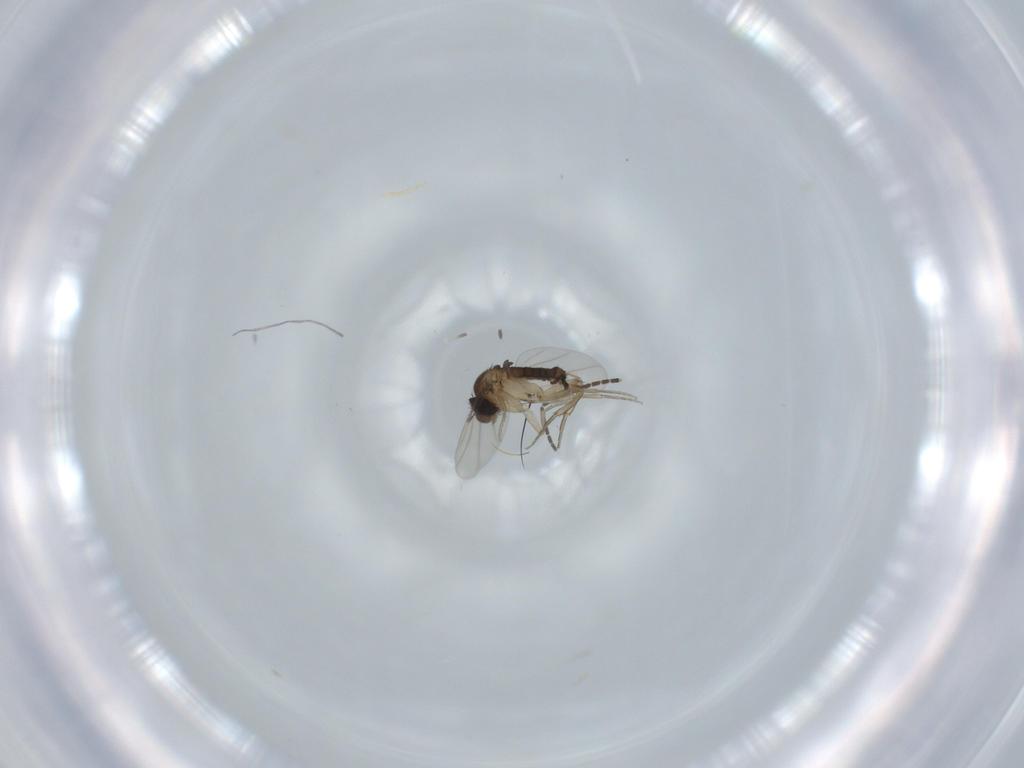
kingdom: Animalia
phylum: Arthropoda
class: Insecta
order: Diptera
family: Phoridae
